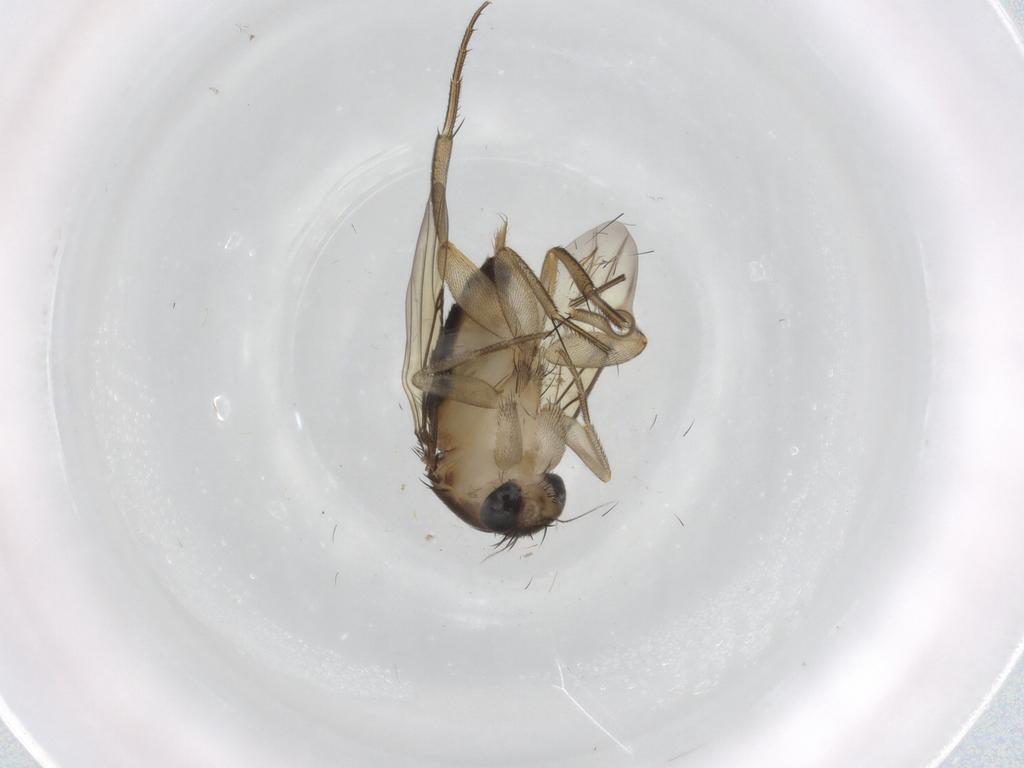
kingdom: Animalia
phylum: Arthropoda
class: Insecta
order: Diptera
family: Phoridae
